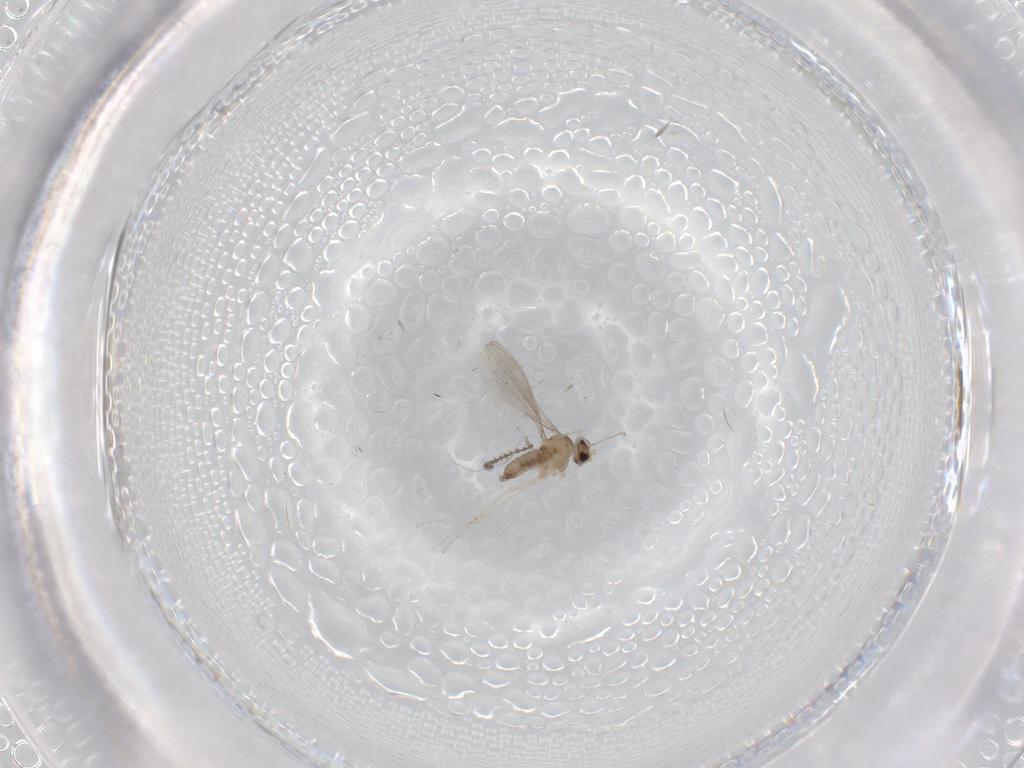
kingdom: Animalia
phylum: Arthropoda
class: Insecta
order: Diptera
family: Cecidomyiidae
